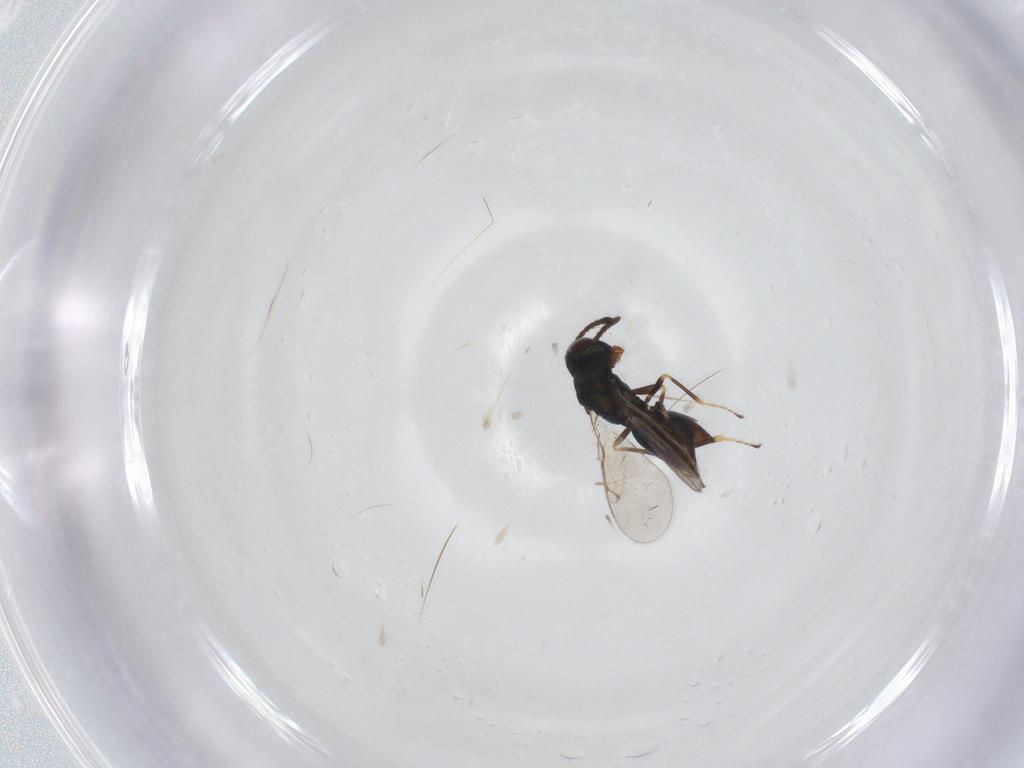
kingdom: Animalia
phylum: Arthropoda
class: Insecta
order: Hymenoptera
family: Pteromalidae
